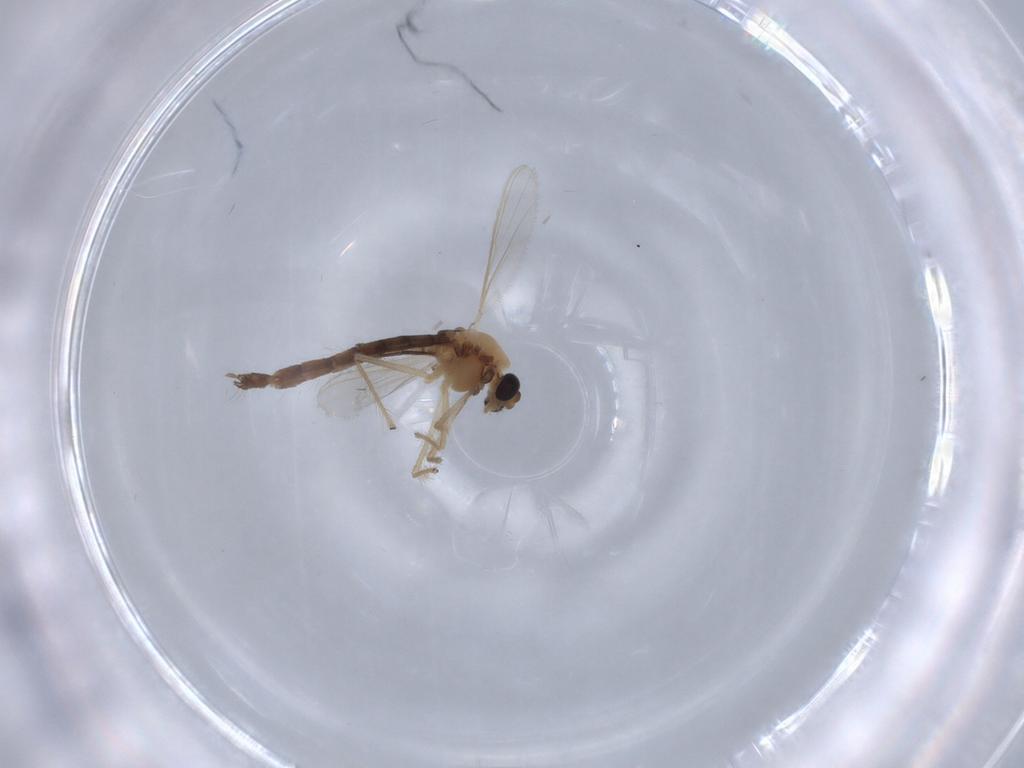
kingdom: Animalia
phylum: Arthropoda
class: Insecta
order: Diptera
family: Chironomidae
